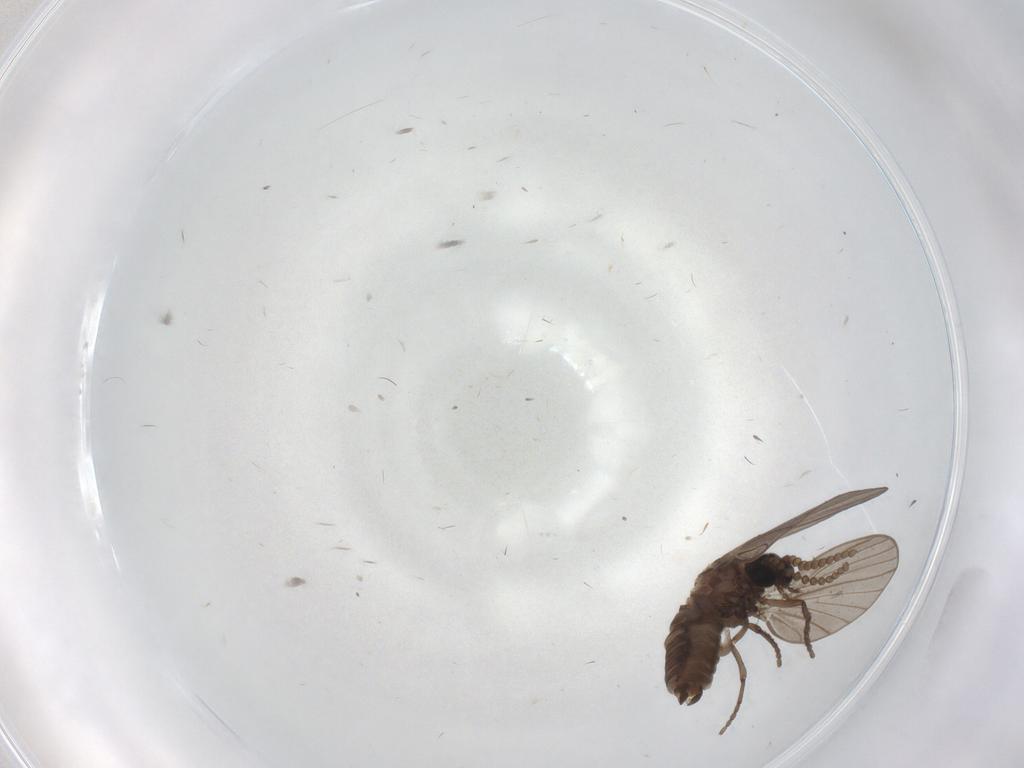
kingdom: Animalia
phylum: Arthropoda
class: Insecta
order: Diptera
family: Psychodidae
